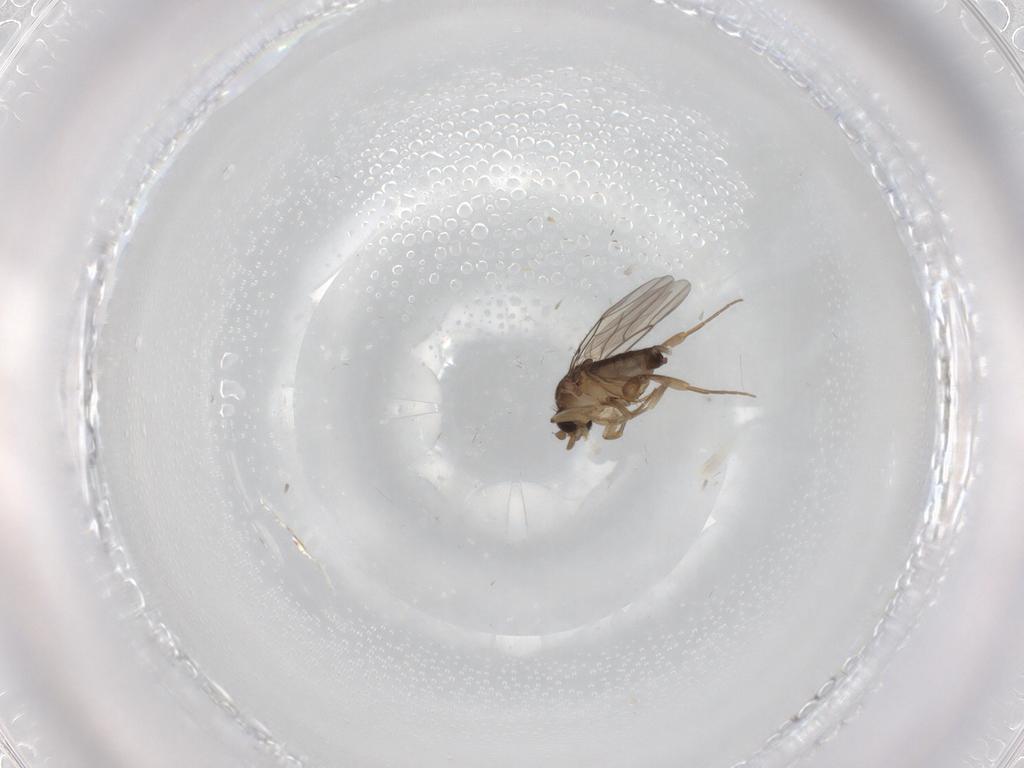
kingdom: Animalia
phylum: Arthropoda
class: Insecta
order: Diptera
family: Phoridae
